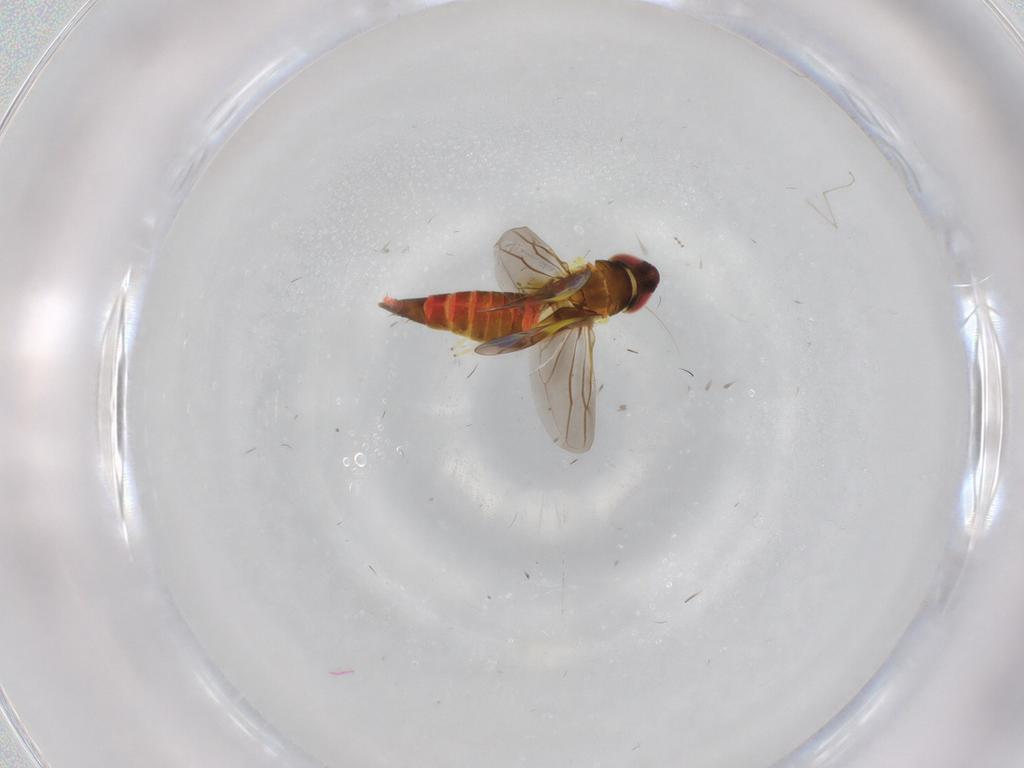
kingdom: Animalia
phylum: Arthropoda
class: Insecta
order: Hemiptera
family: Cicadellidae
